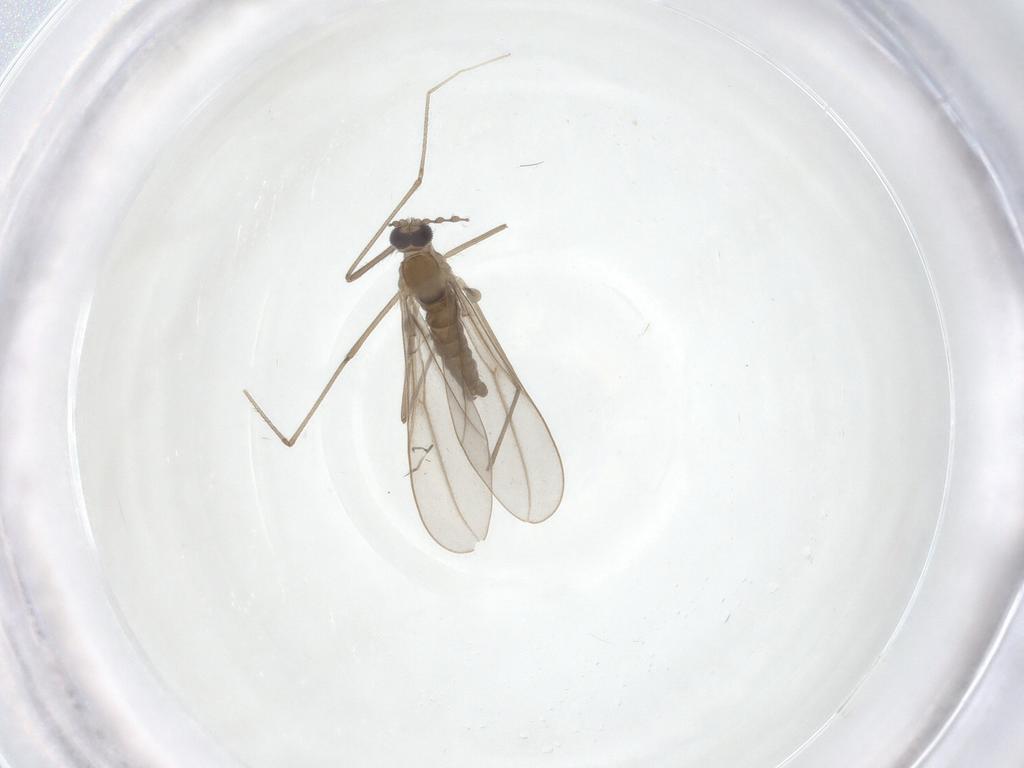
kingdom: Animalia
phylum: Arthropoda
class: Insecta
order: Diptera
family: Cecidomyiidae
